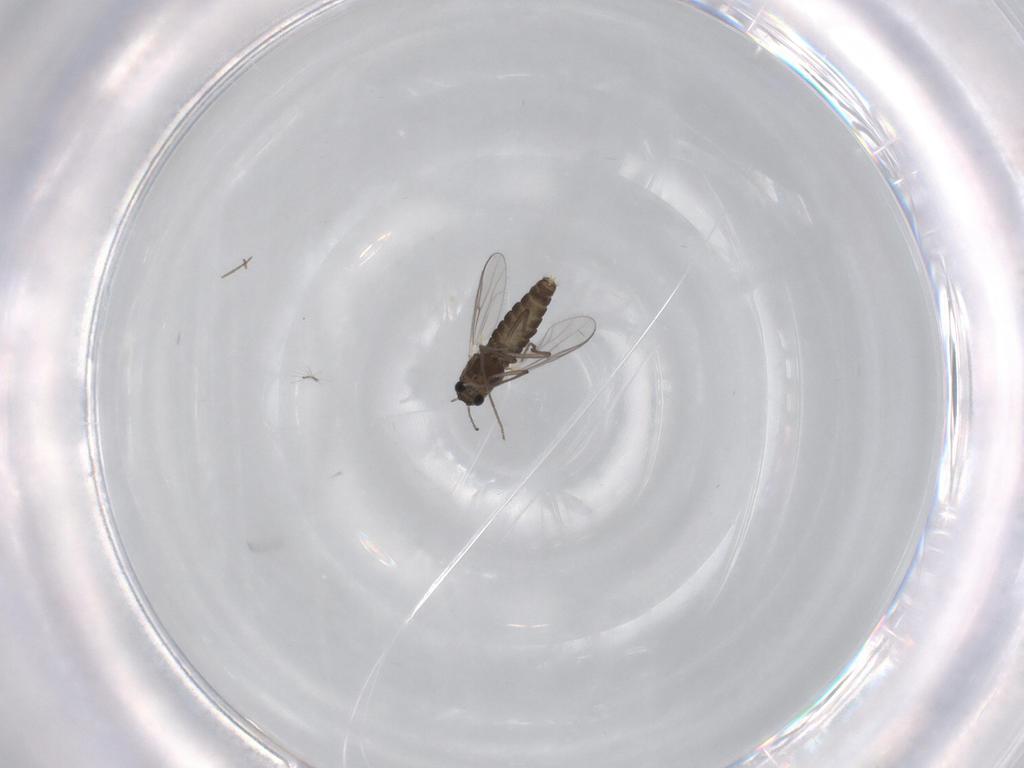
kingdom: Animalia
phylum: Arthropoda
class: Insecta
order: Diptera
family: Chironomidae
